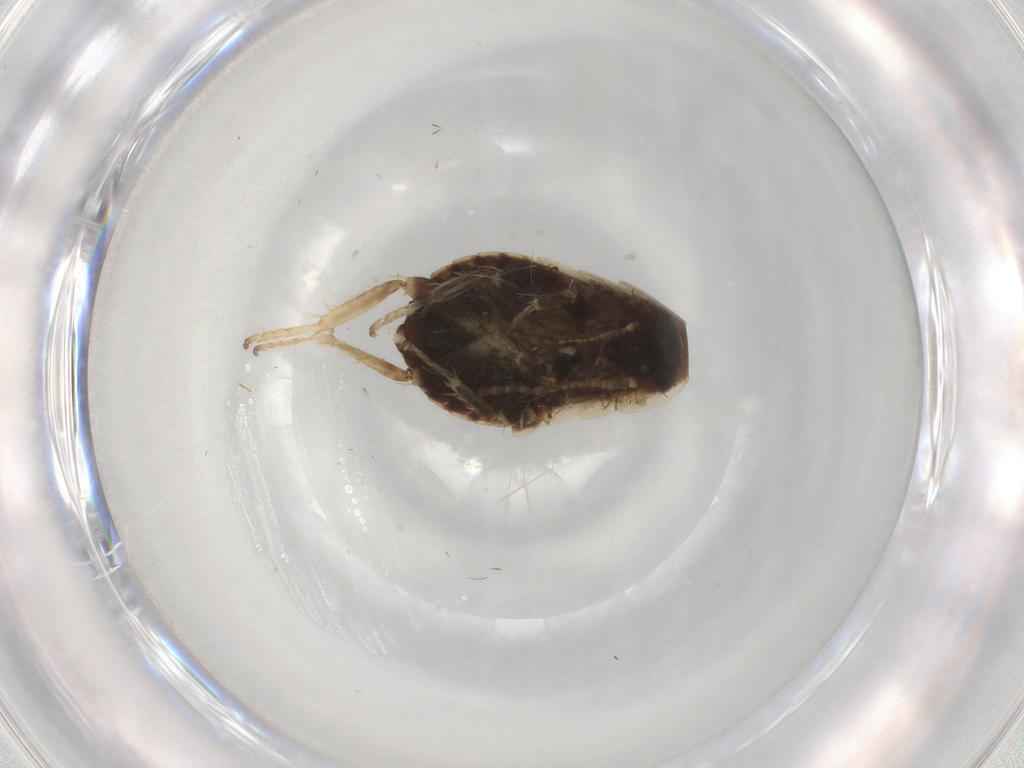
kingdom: Animalia
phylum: Arthropoda
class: Insecta
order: Blattodea
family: Ectobiidae
